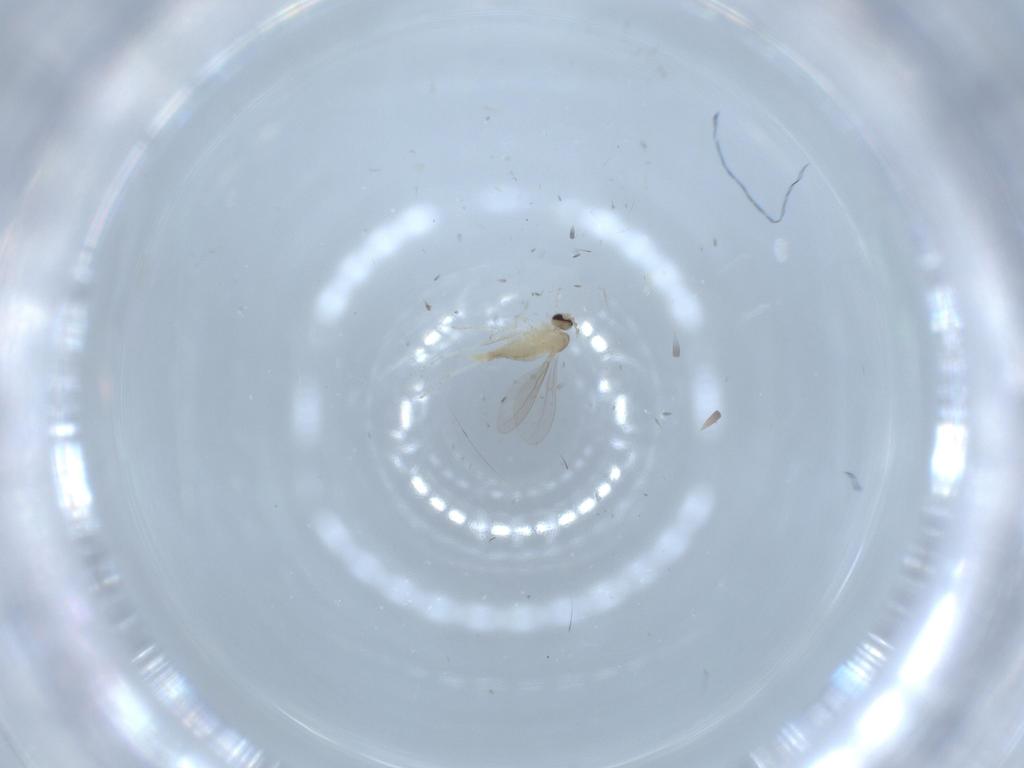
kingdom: Animalia
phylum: Arthropoda
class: Insecta
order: Diptera
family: Cecidomyiidae
